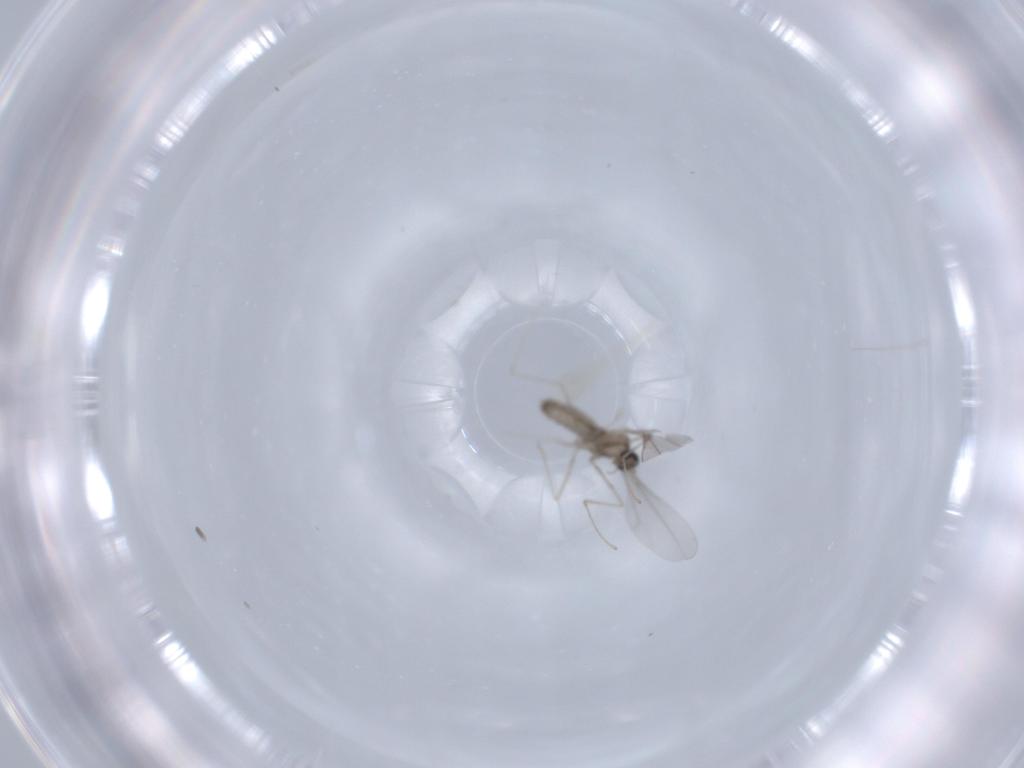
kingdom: Animalia
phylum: Arthropoda
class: Insecta
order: Diptera
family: Cecidomyiidae
